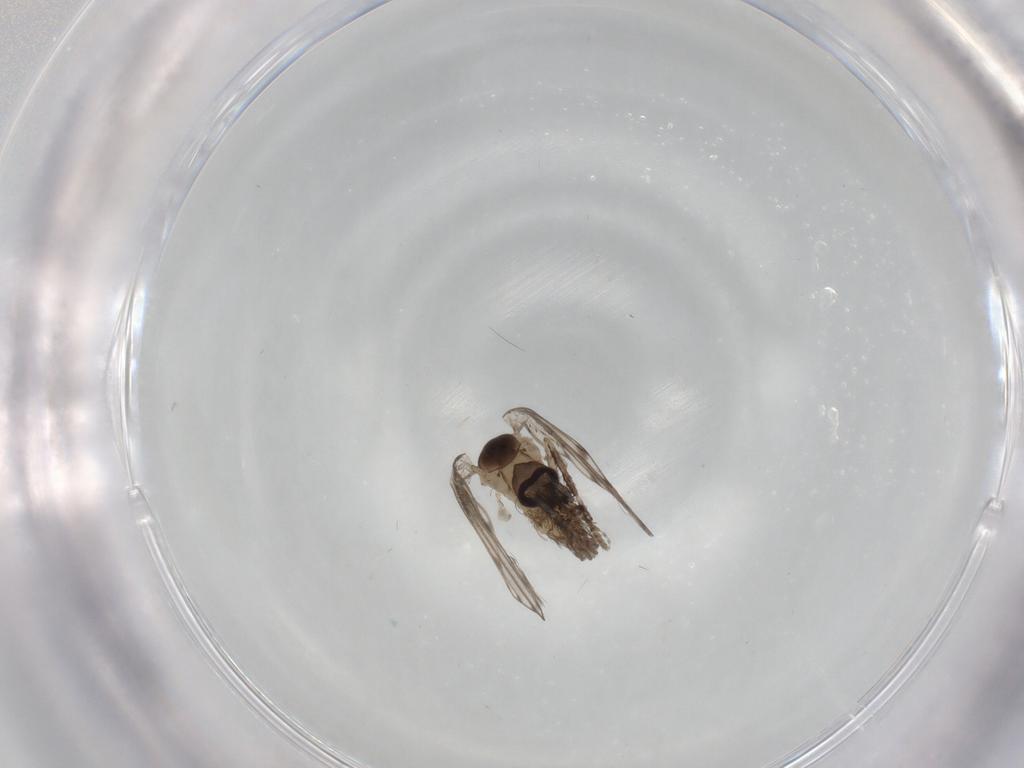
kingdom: Animalia
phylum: Arthropoda
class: Insecta
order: Diptera
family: Psychodidae
